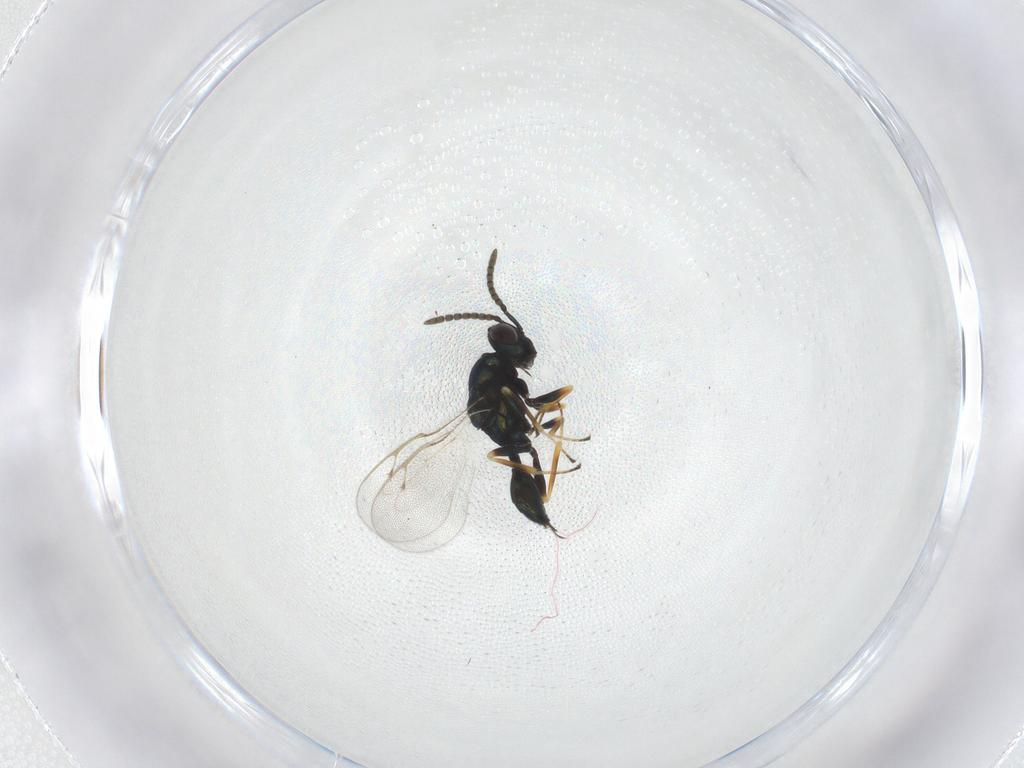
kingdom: Animalia
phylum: Arthropoda
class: Insecta
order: Hymenoptera
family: Pteromalidae
